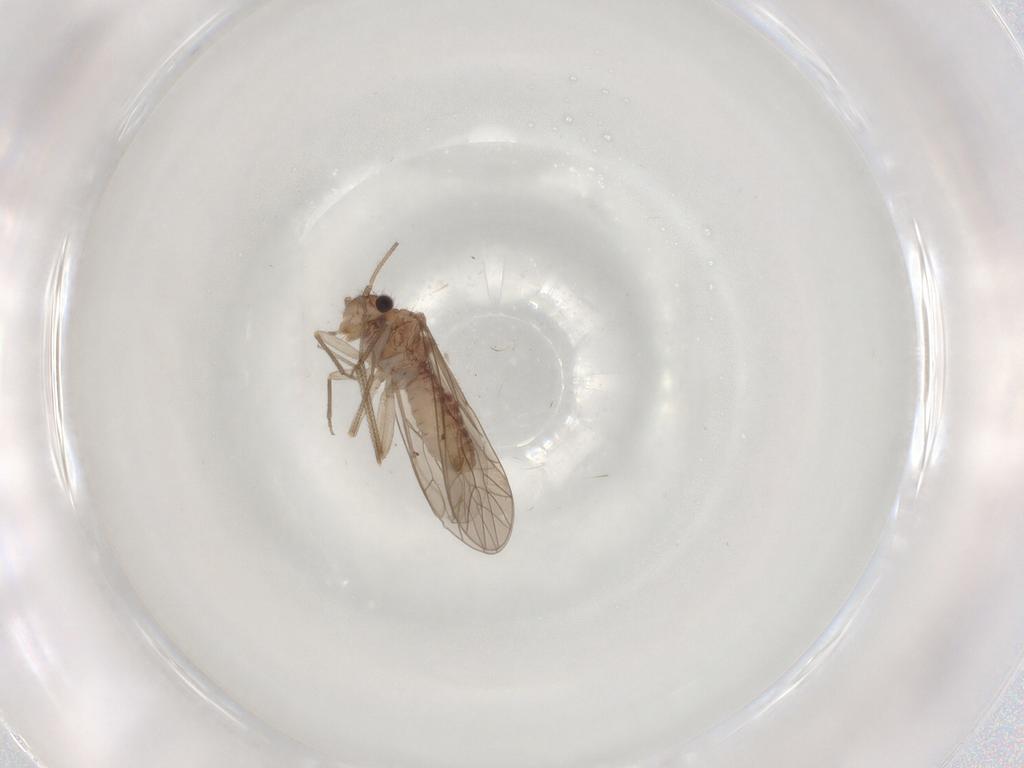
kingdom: Animalia
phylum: Arthropoda
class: Insecta
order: Psocodea
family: Caeciliusidae
